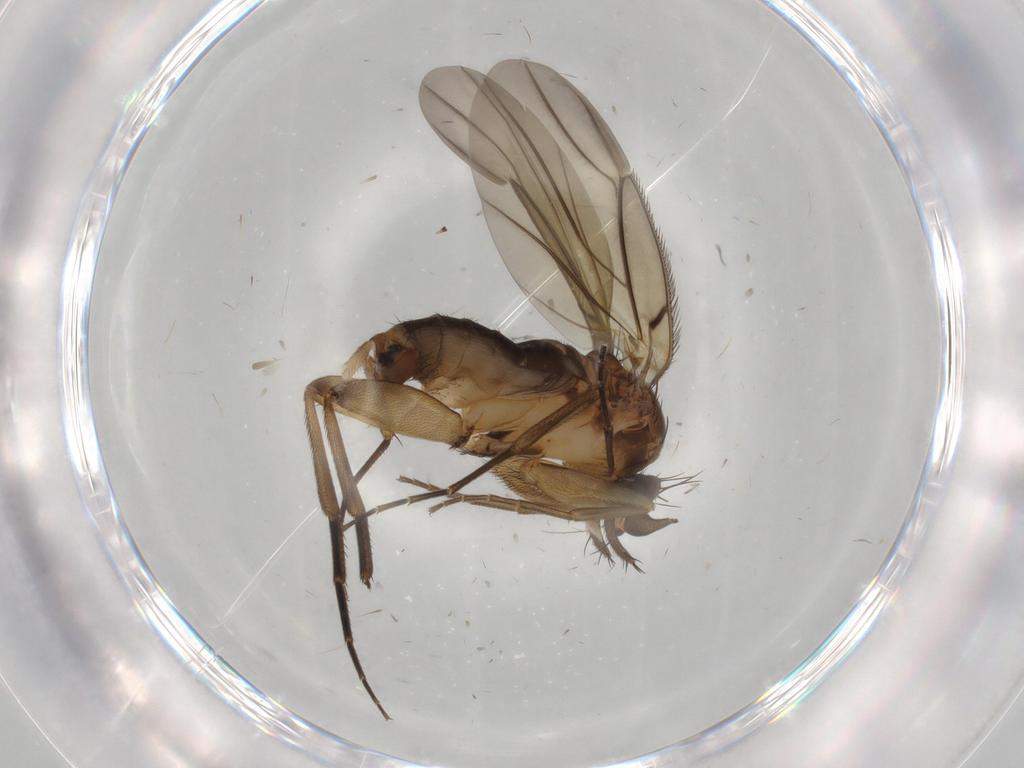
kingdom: Animalia
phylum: Arthropoda
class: Insecta
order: Diptera
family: Phoridae
